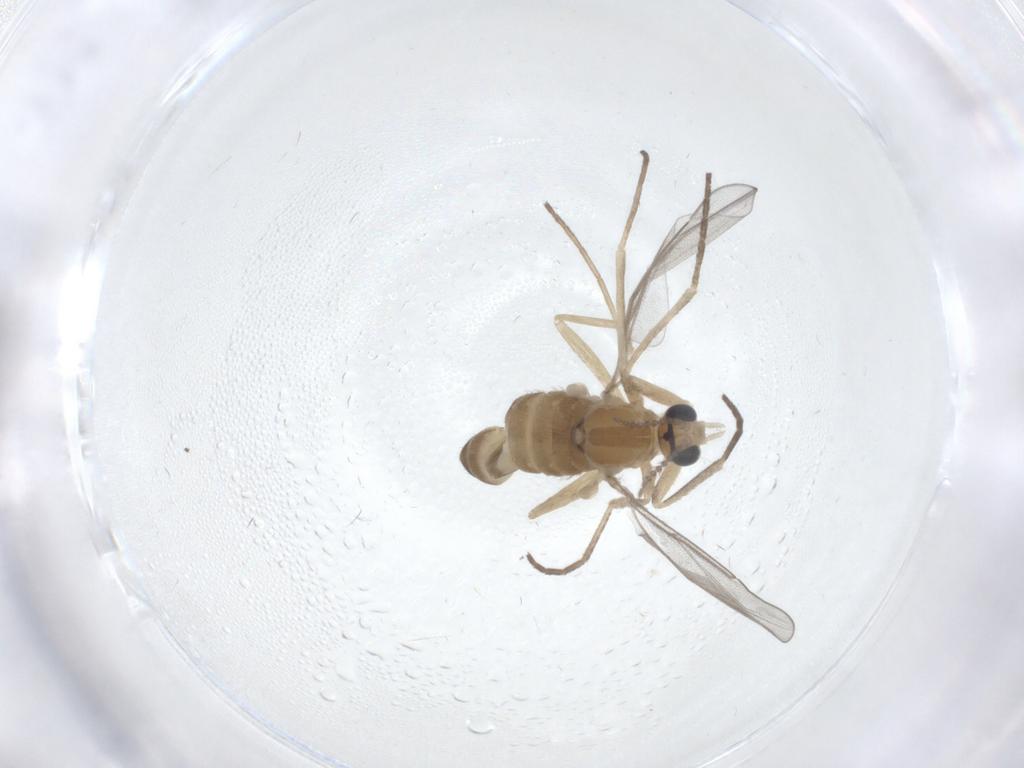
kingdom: Animalia
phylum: Arthropoda
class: Insecta
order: Diptera
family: Cecidomyiidae
